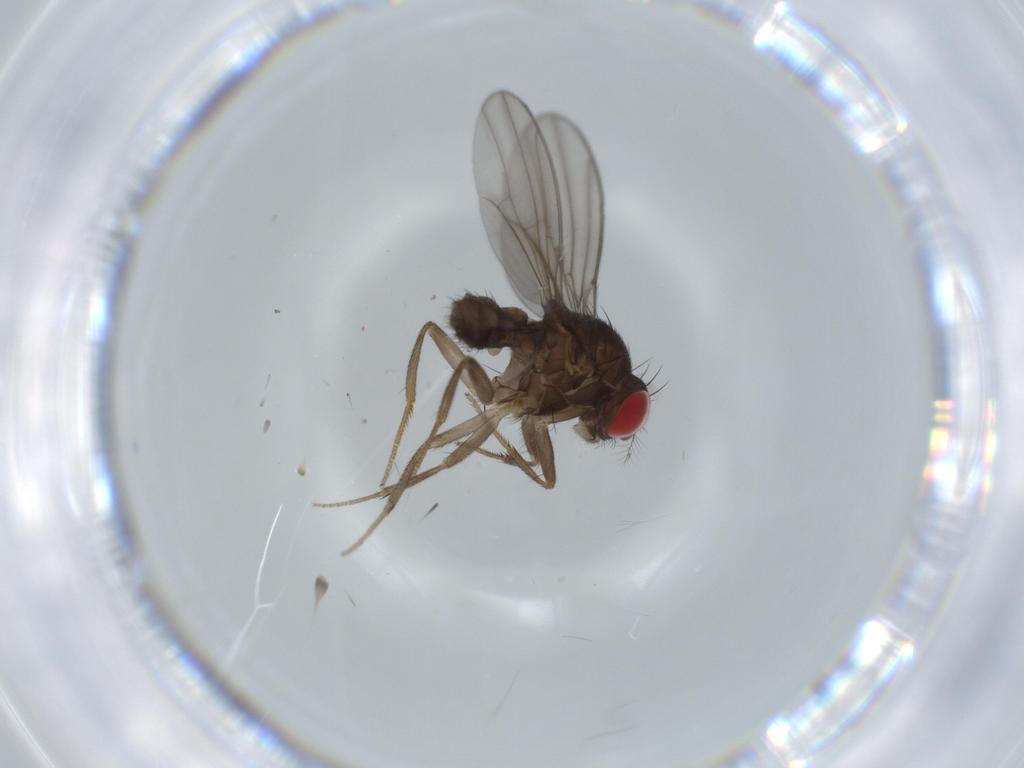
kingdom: Animalia
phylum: Arthropoda
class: Insecta
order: Diptera
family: Drosophilidae
